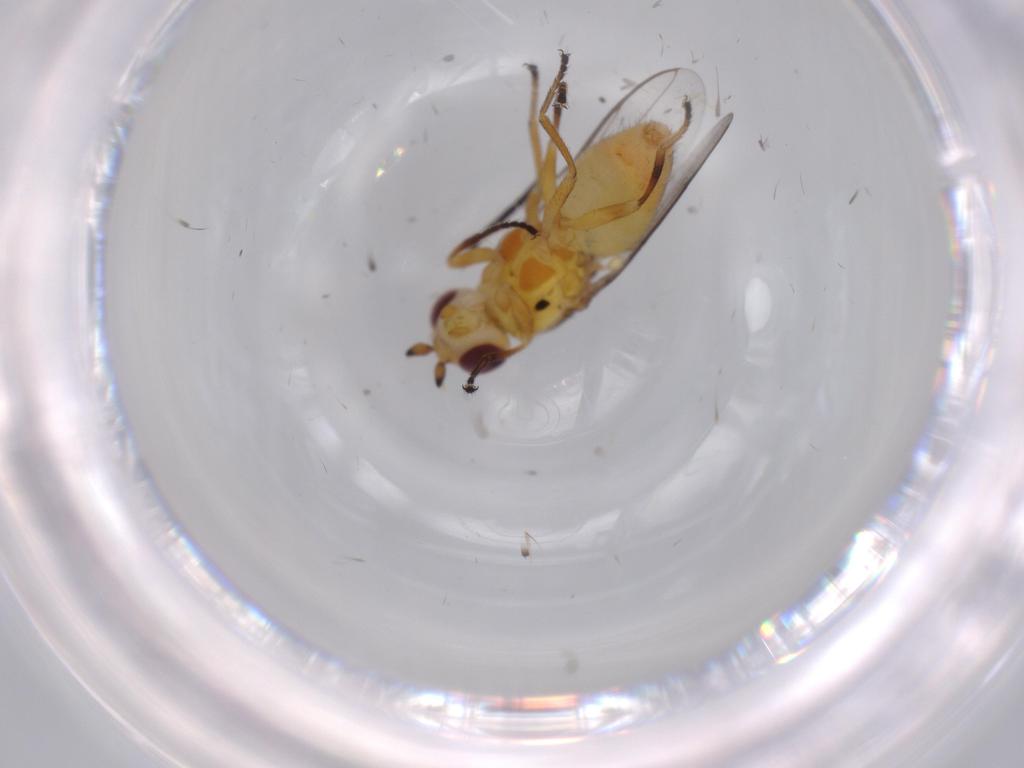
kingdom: Animalia
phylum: Arthropoda
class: Insecta
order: Diptera
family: Chloropidae
